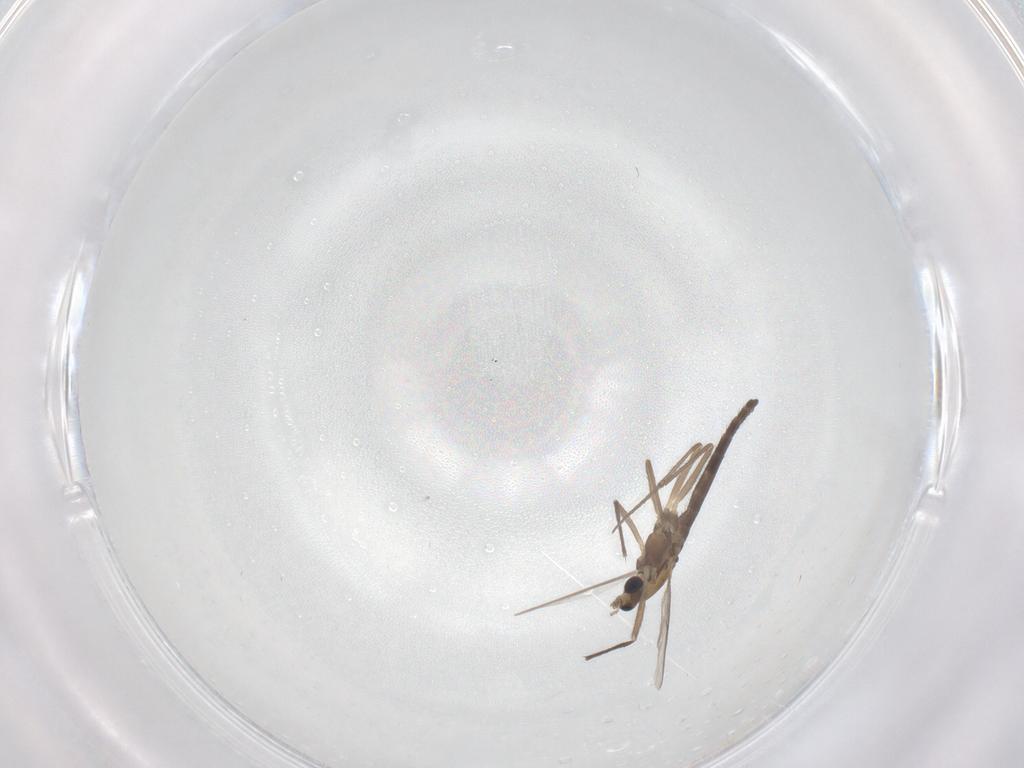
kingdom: Animalia
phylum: Arthropoda
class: Insecta
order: Diptera
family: Chironomidae
